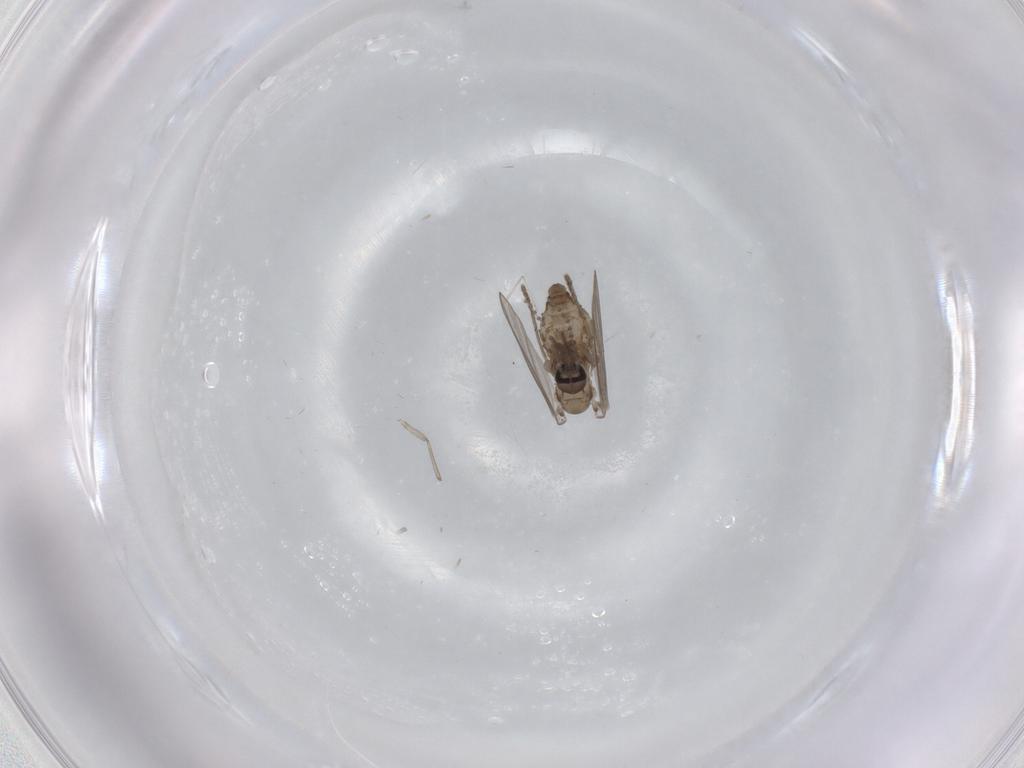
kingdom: Animalia
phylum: Arthropoda
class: Insecta
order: Diptera
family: Psychodidae
